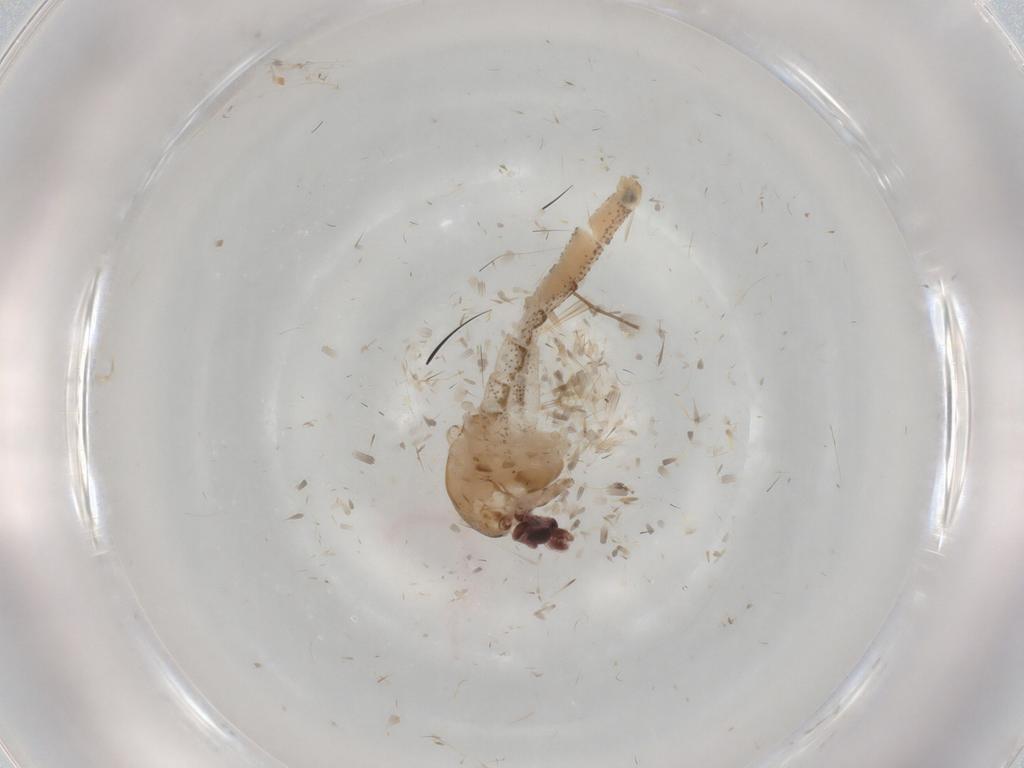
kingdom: Animalia
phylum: Arthropoda
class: Insecta
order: Diptera
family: Chaoboridae
